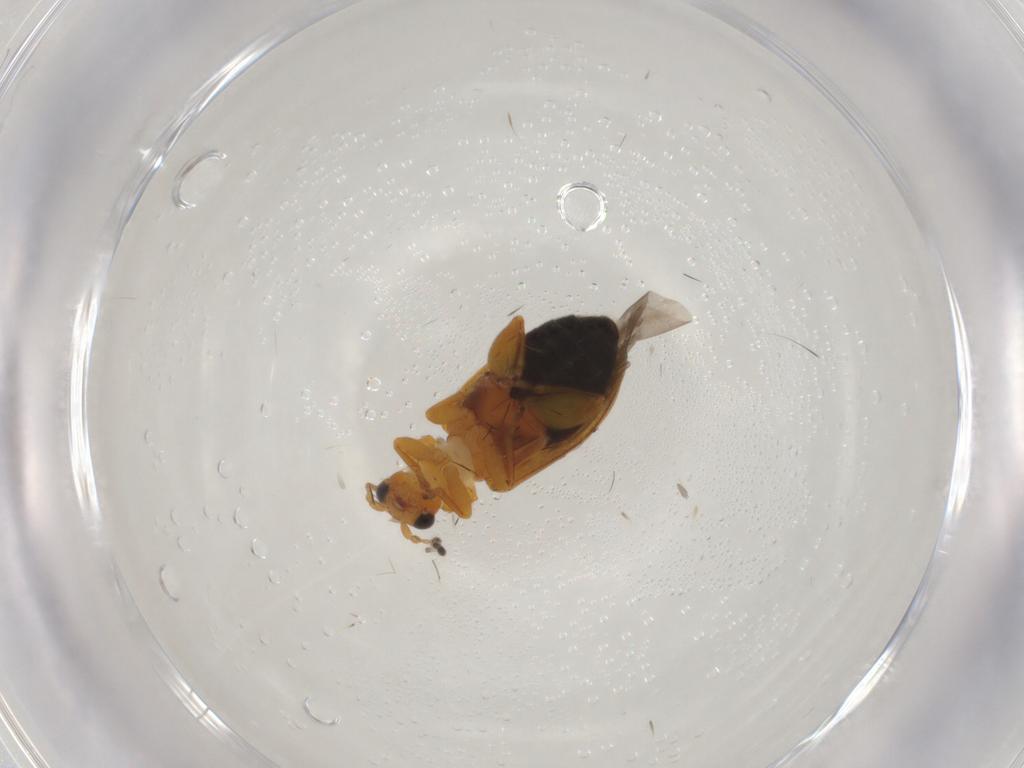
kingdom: Animalia
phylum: Arthropoda
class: Insecta
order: Coleoptera
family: Chrysomelidae
